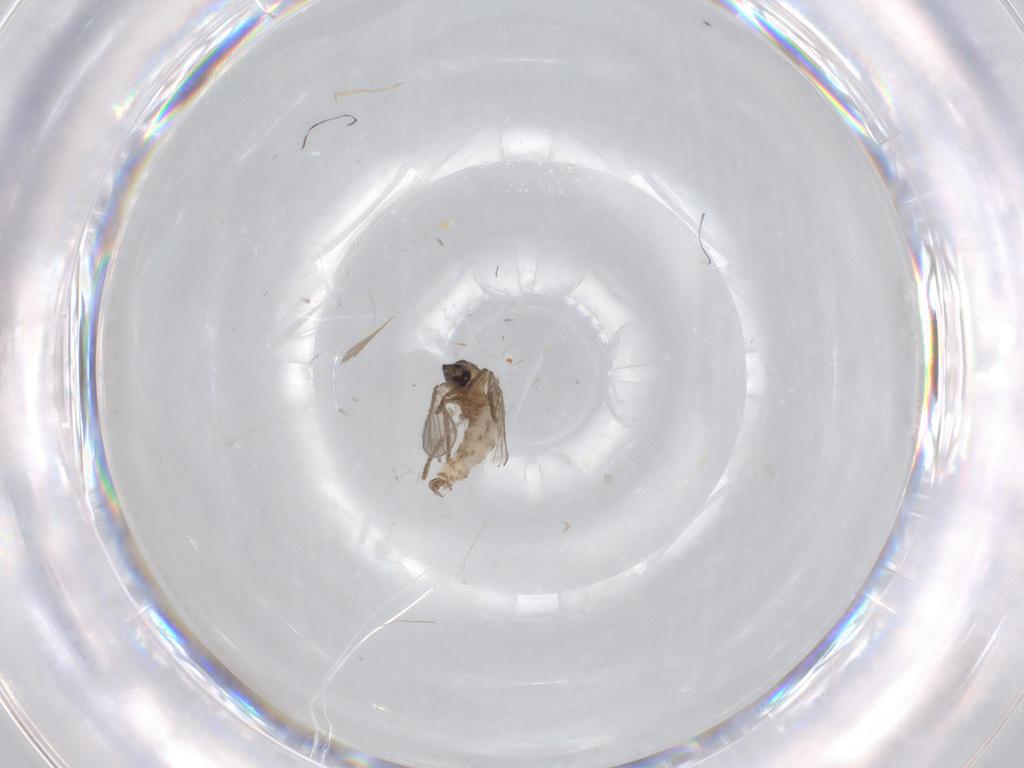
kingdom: Animalia
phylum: Arthropoda
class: Insecta
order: Diptera
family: Psychodidae
